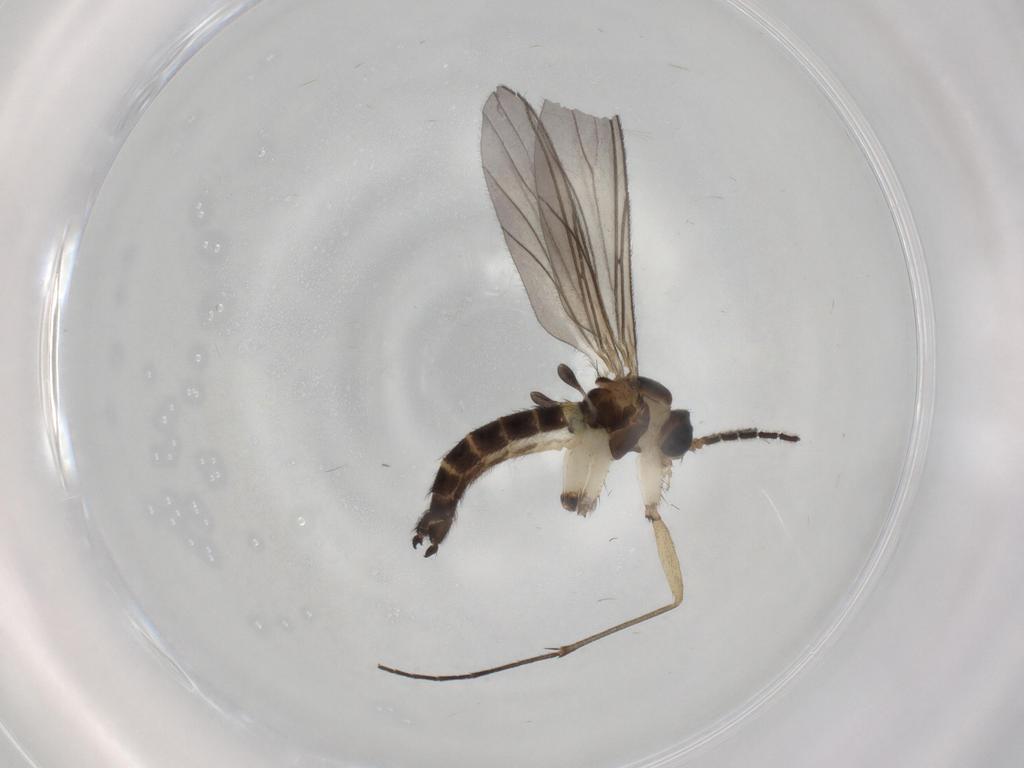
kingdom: Animalia
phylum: Arthropoda
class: Insecta
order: Diptera
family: Sciaridae
